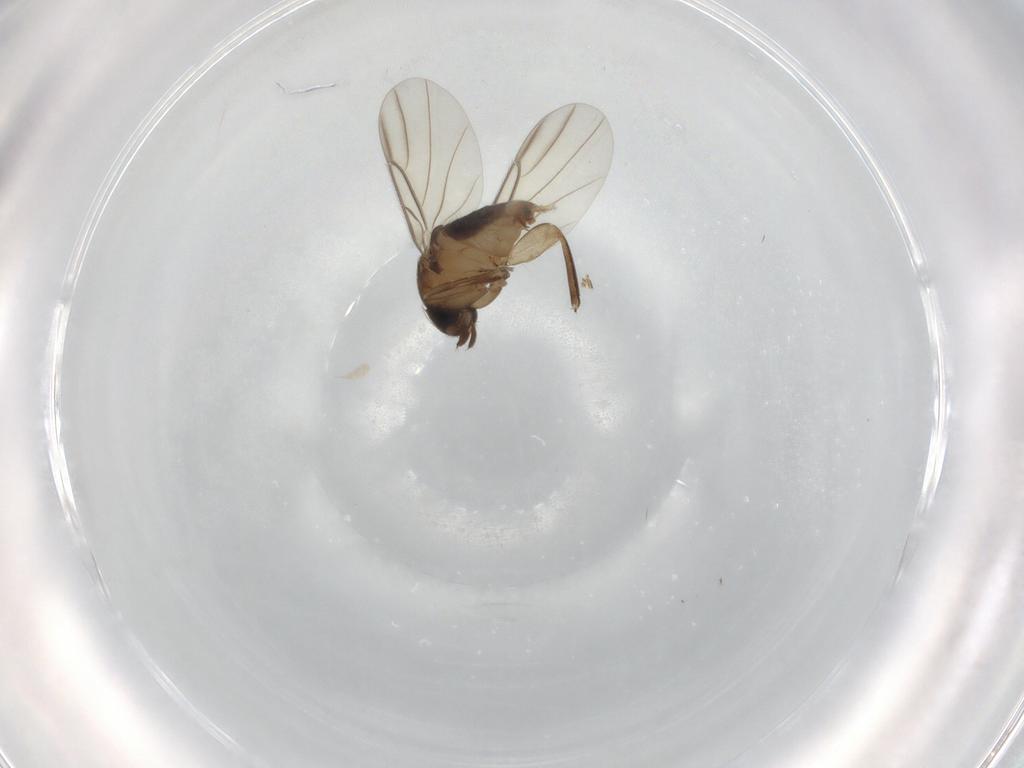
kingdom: Animalia
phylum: Arthropoda
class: Insecta
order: Diptera
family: Phoridae
